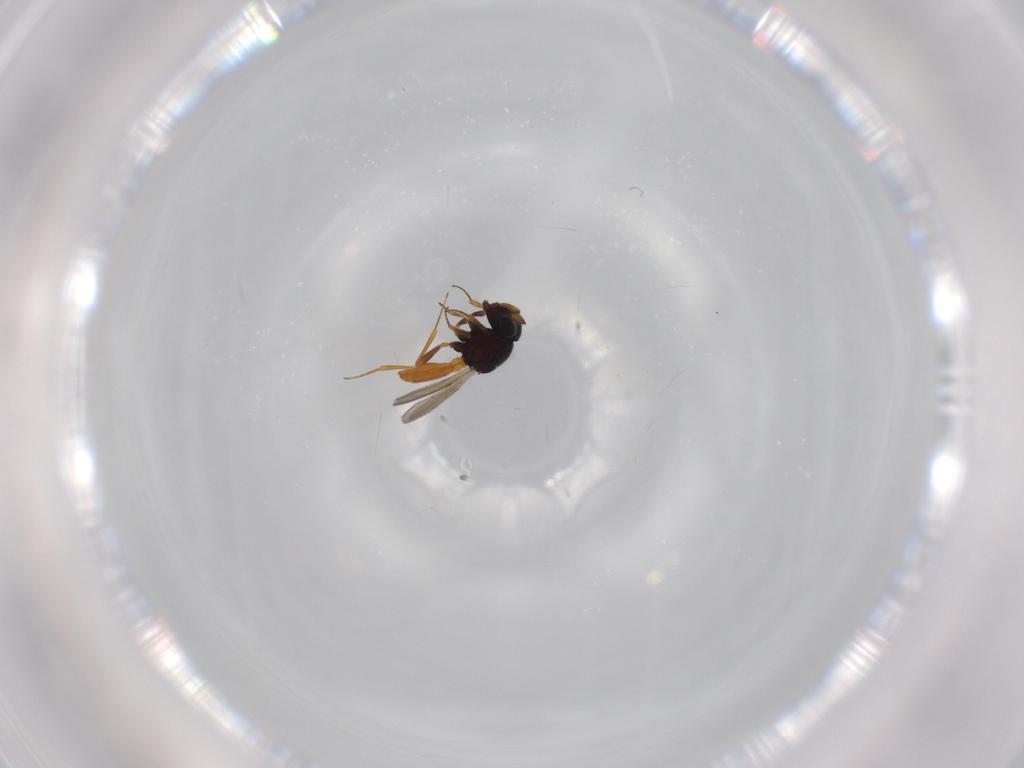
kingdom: Animalia
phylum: Arthropoda
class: Insecta
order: Hymenoptera
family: Scelionidae
